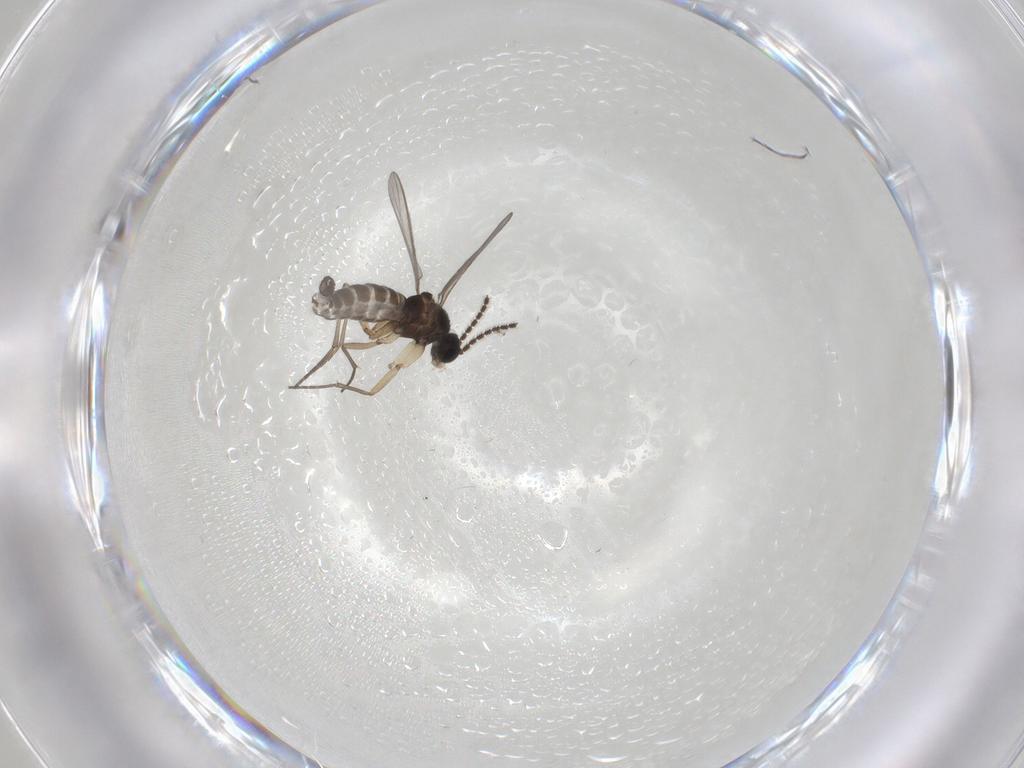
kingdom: Animalia
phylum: Arthropoda
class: Insecta
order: Diptera
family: Sciaridae
